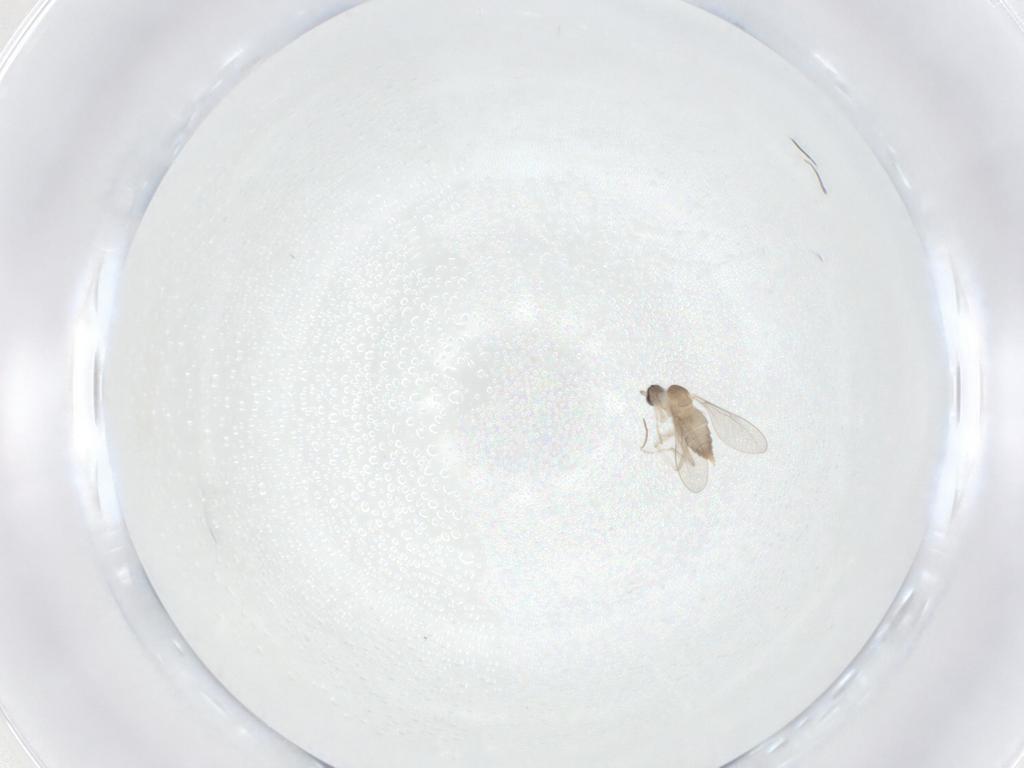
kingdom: Animalia
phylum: Arthropoda
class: Insecta
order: Diptera
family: Cecidomyiidae
